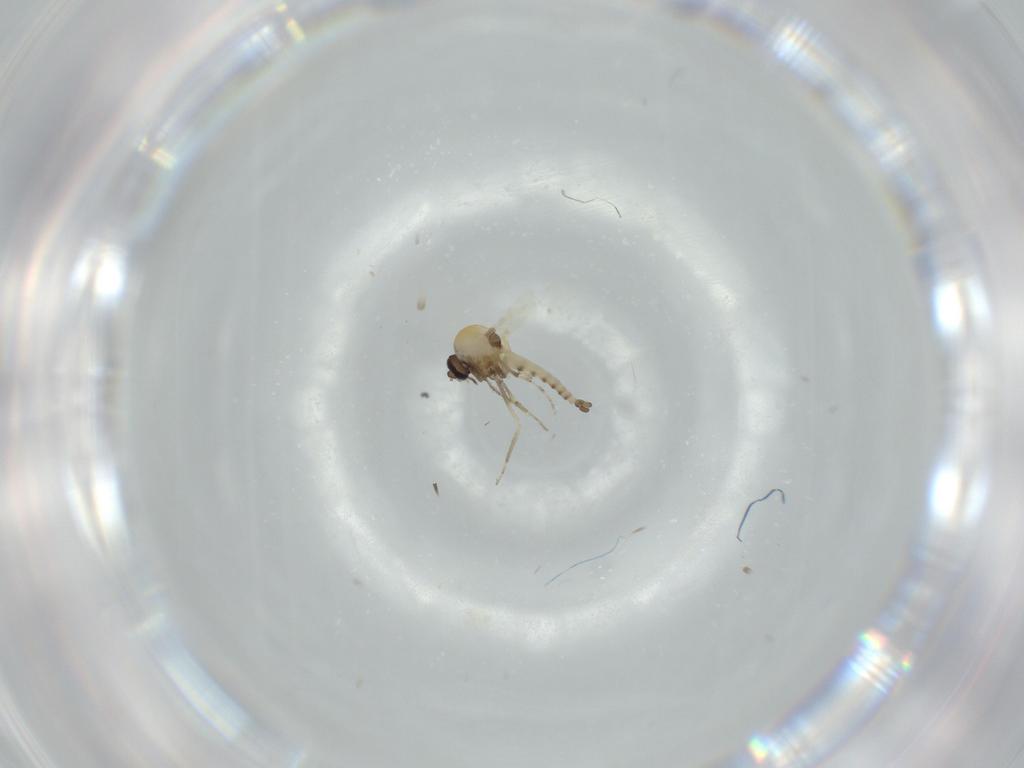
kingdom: Animalia
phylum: Arthropoda
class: Insecta
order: Diptera
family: Ceratopogonidae
